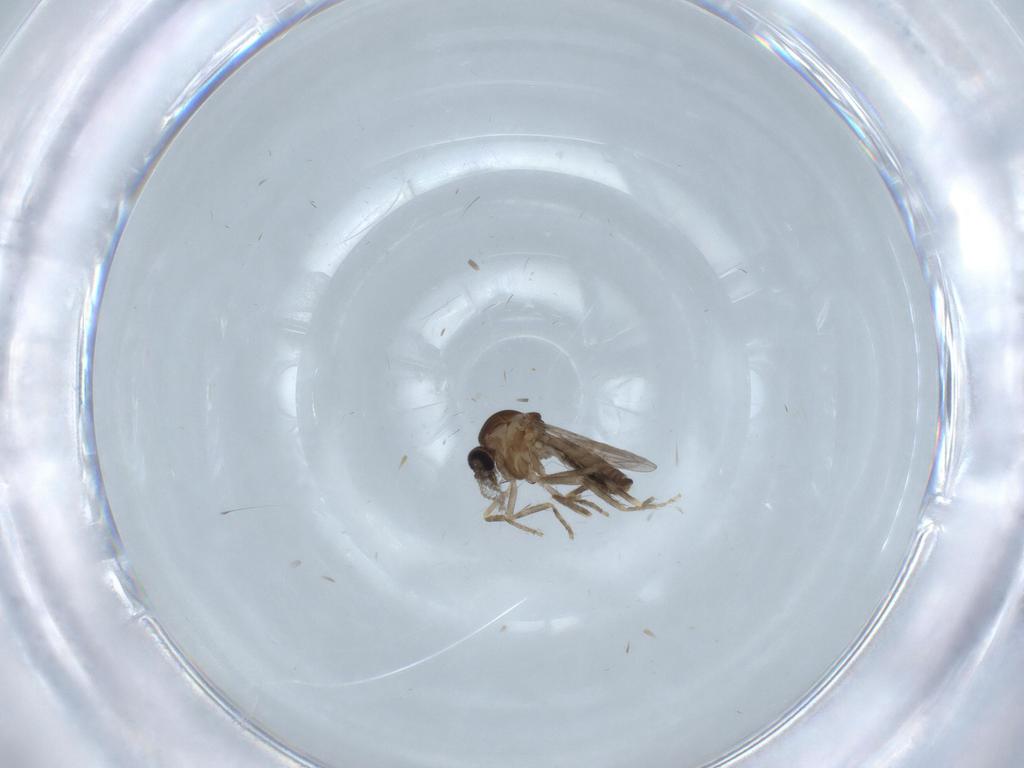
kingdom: Animalia
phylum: Arthropoda
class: Insecta
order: Diptera
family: Ceratopogonidae
